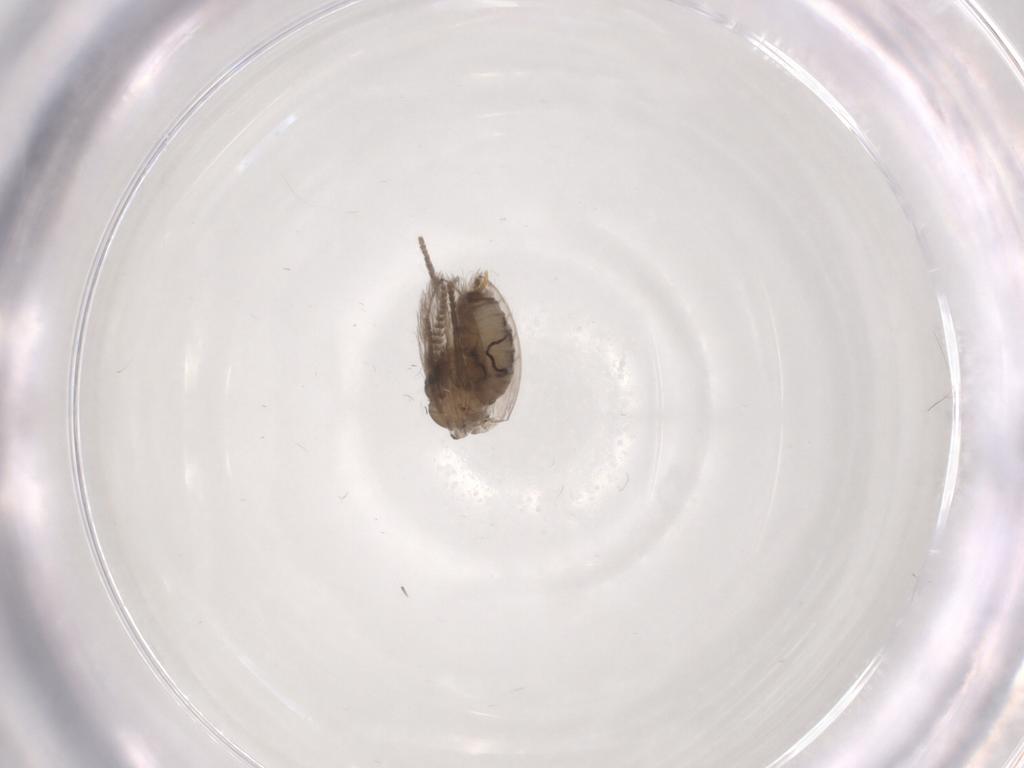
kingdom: Animalia
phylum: Arthropoda
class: Insecta
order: Diptera
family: Psychodidae
